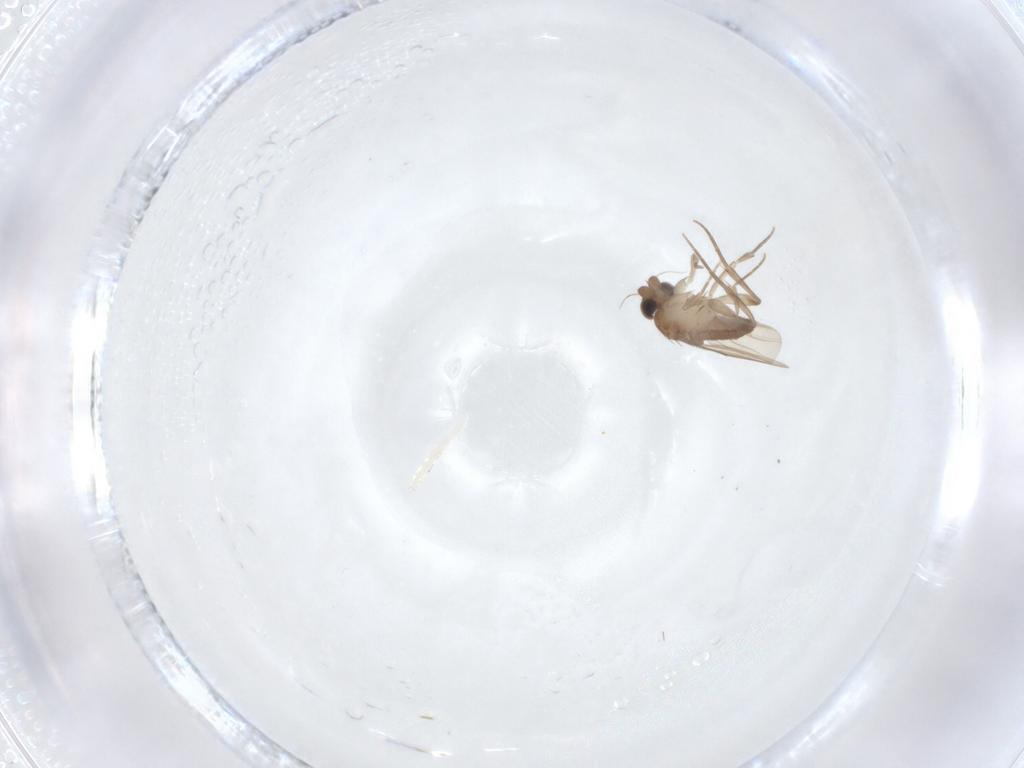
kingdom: Animalia
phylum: Arthropoda
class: Insecta
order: Diptera
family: Phoridae
